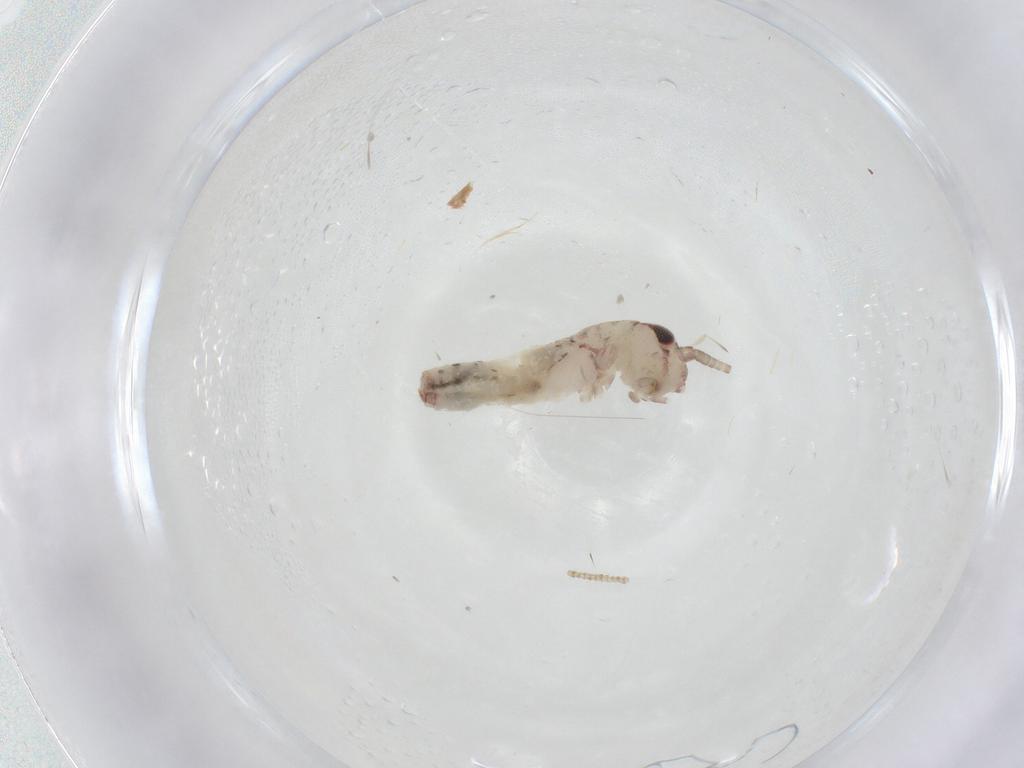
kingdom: Animalia
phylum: Arthropoda
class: Insecta
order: Orthoptera
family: Gryllidae
